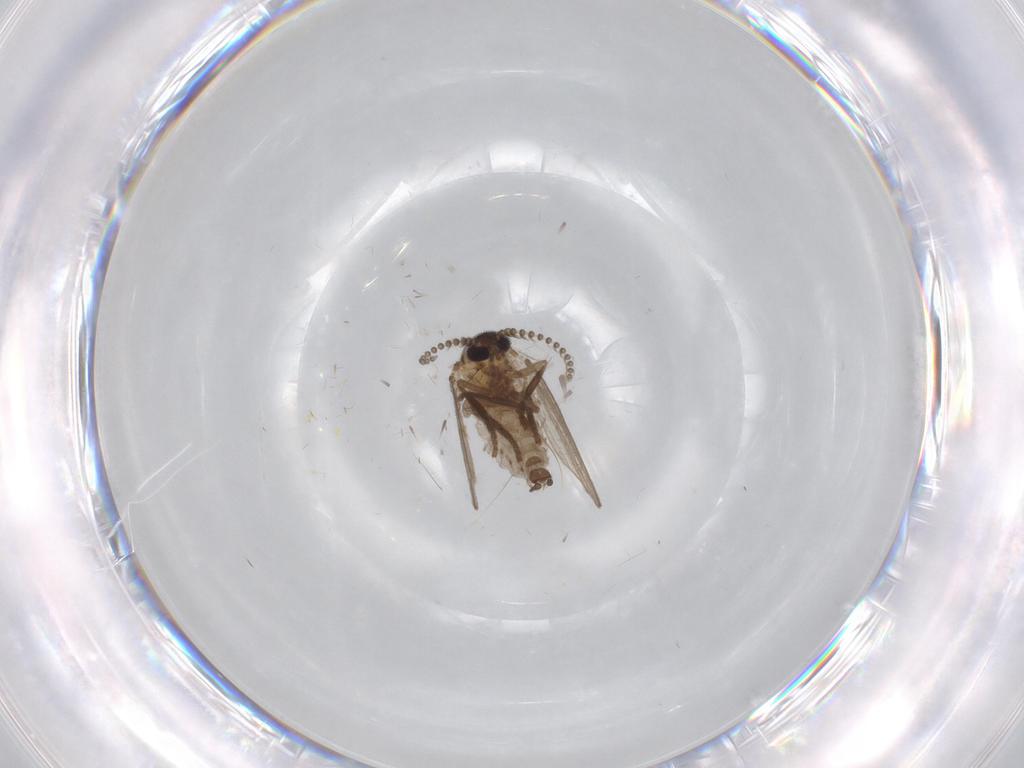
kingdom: Animalia
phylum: Arthropoda
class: Insecta
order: Diptera
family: Psychodidae
